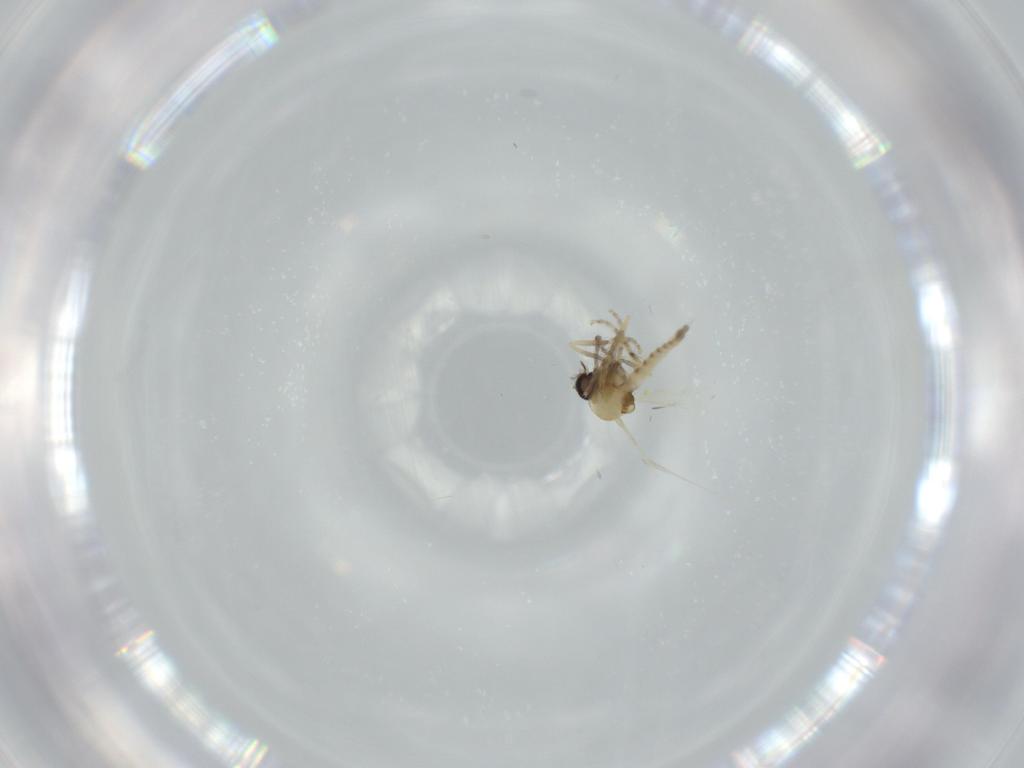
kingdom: Animalia
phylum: Arthropoda
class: Insecta
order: Diptera
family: Ceratopogonidae
